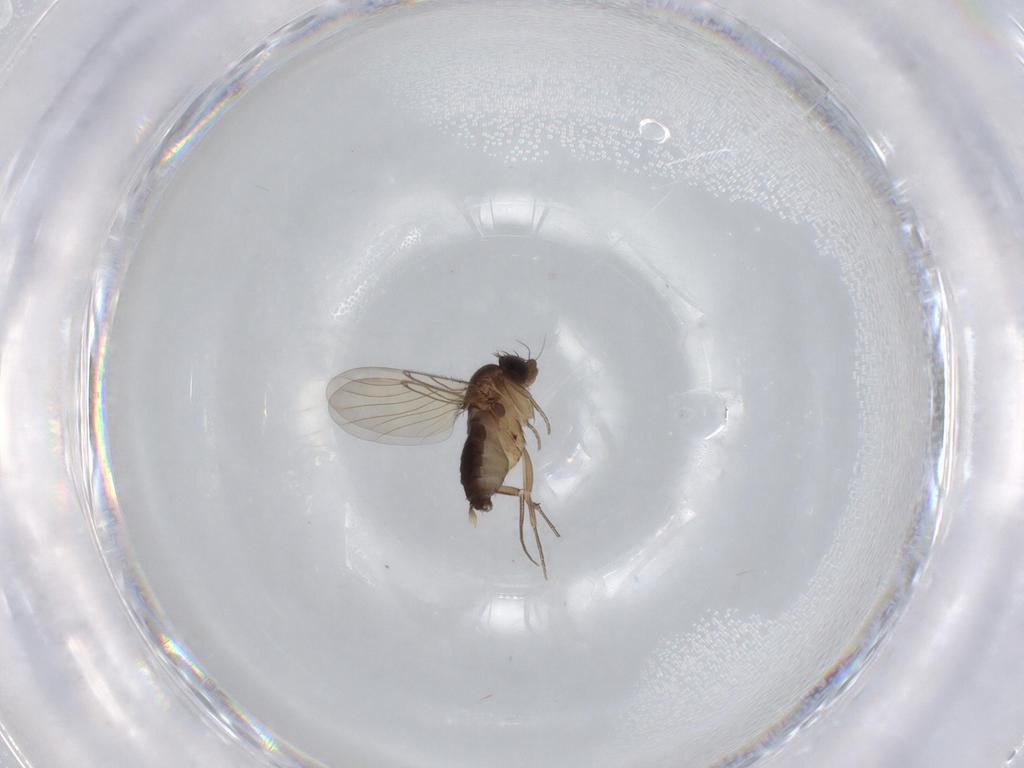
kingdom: Animalia
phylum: Arthropoda
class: Insecta
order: Diptera
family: Phoridae
